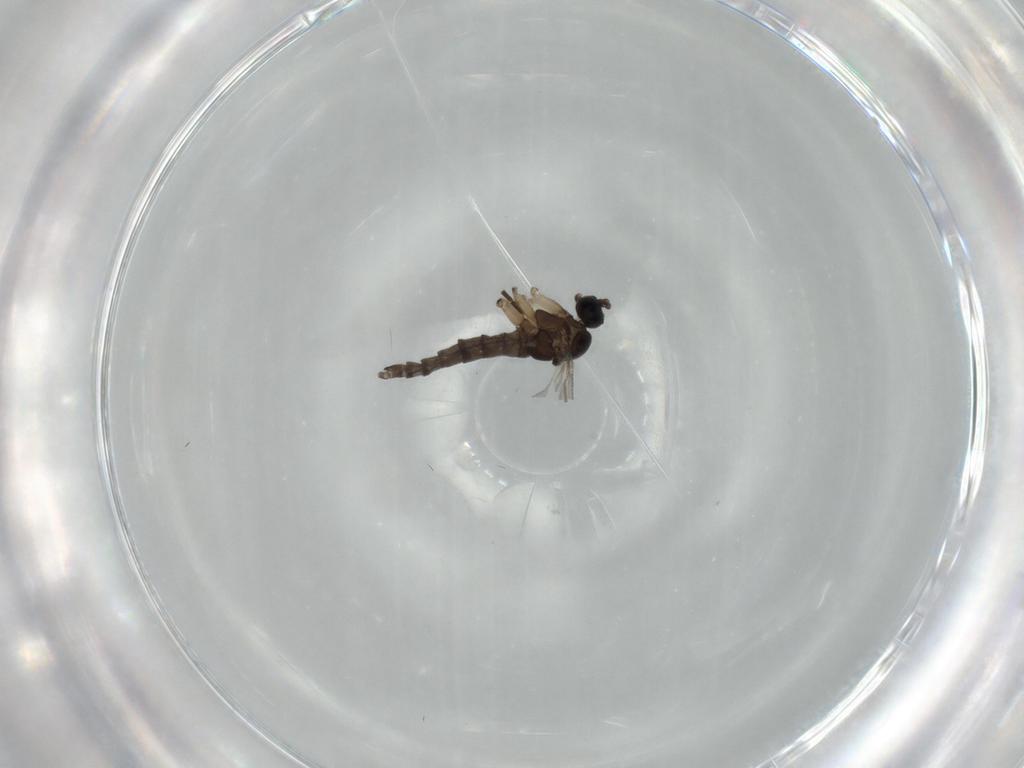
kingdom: Animalia
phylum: Arthropoda
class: Insecta
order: Diptera
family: Sciaridae
